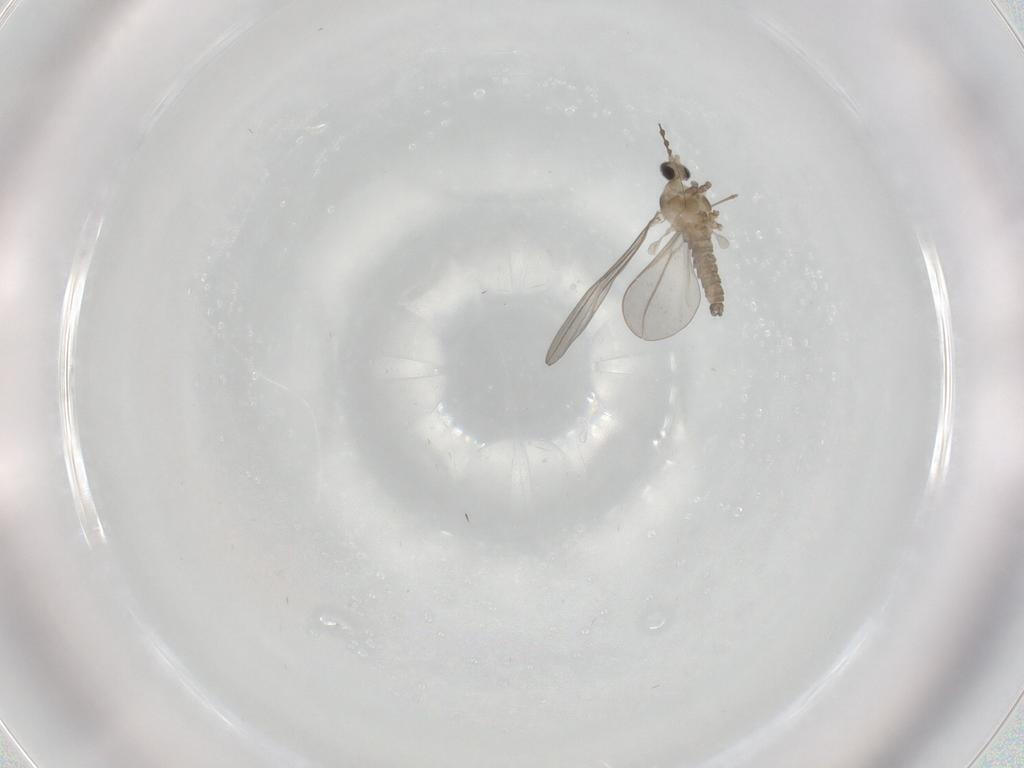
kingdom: Animalia
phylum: Arthropoda
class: Insecta
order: Diptera
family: Cecidomyiidae
